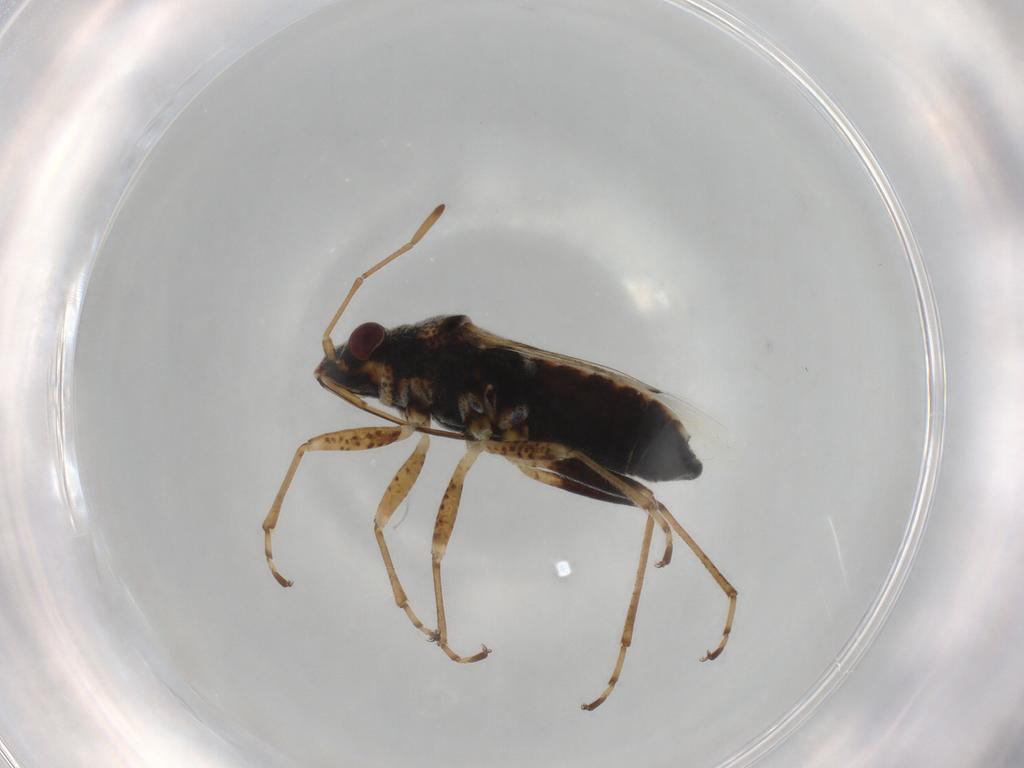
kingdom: Animalia
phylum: Arthropoda
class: Insecta
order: Hemiptera
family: Lygaeidae
